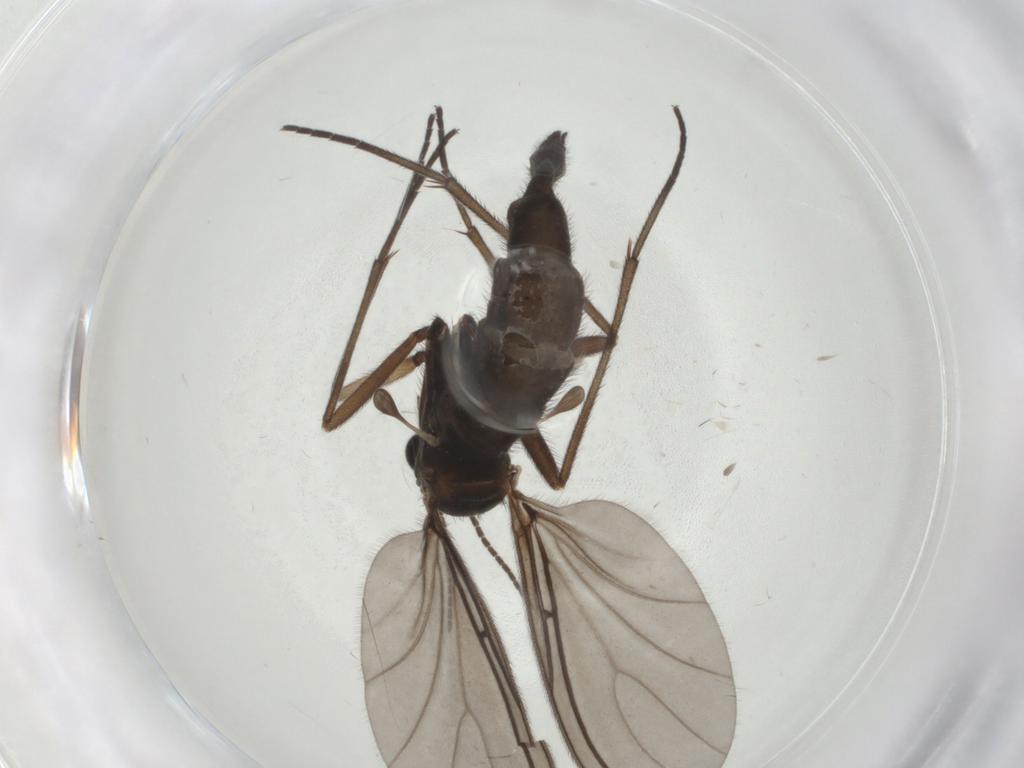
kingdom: Animalia
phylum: Arthropoda
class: Insecta
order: Diptera
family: Sciaridae
